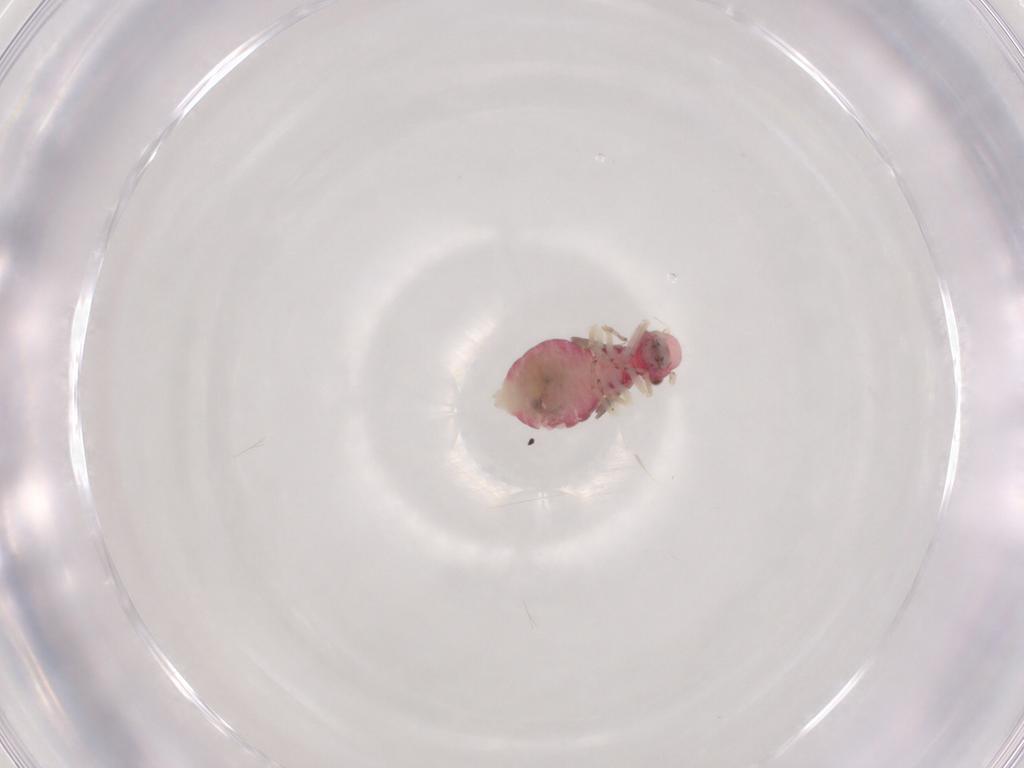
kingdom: Animalia
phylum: Arthropoda
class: Insecta
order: Psocodea
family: Caeciliusidae
